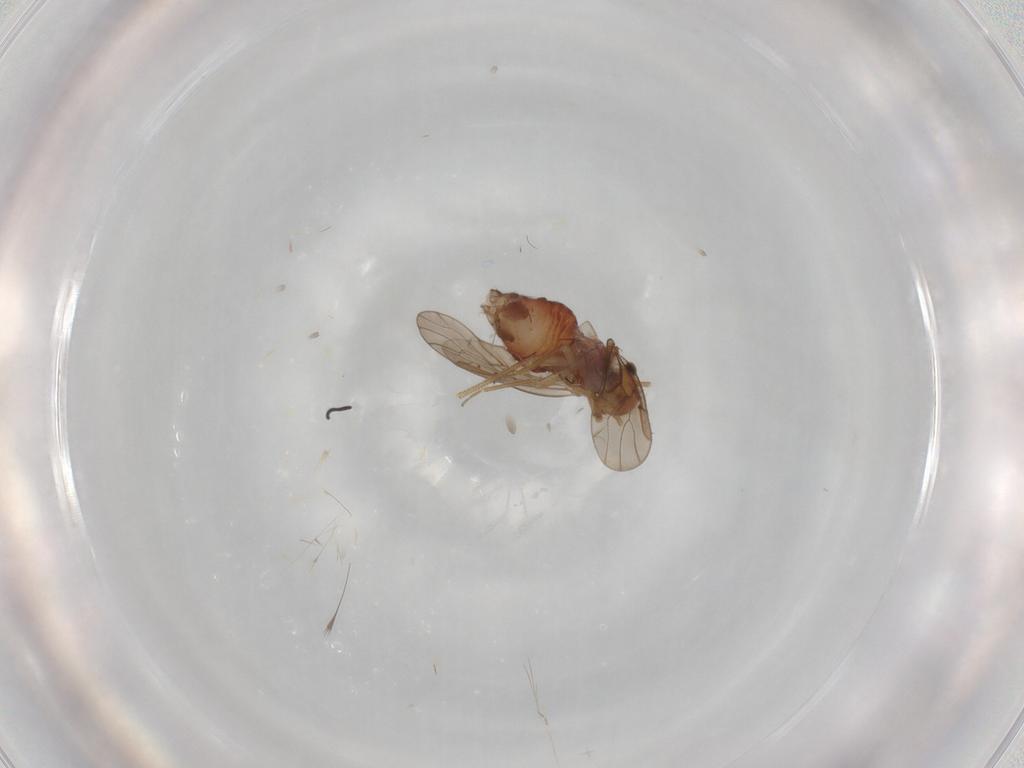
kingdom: Animalia
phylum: Arthropoda
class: Insecta
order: Psocodea
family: Ectopsocidae
